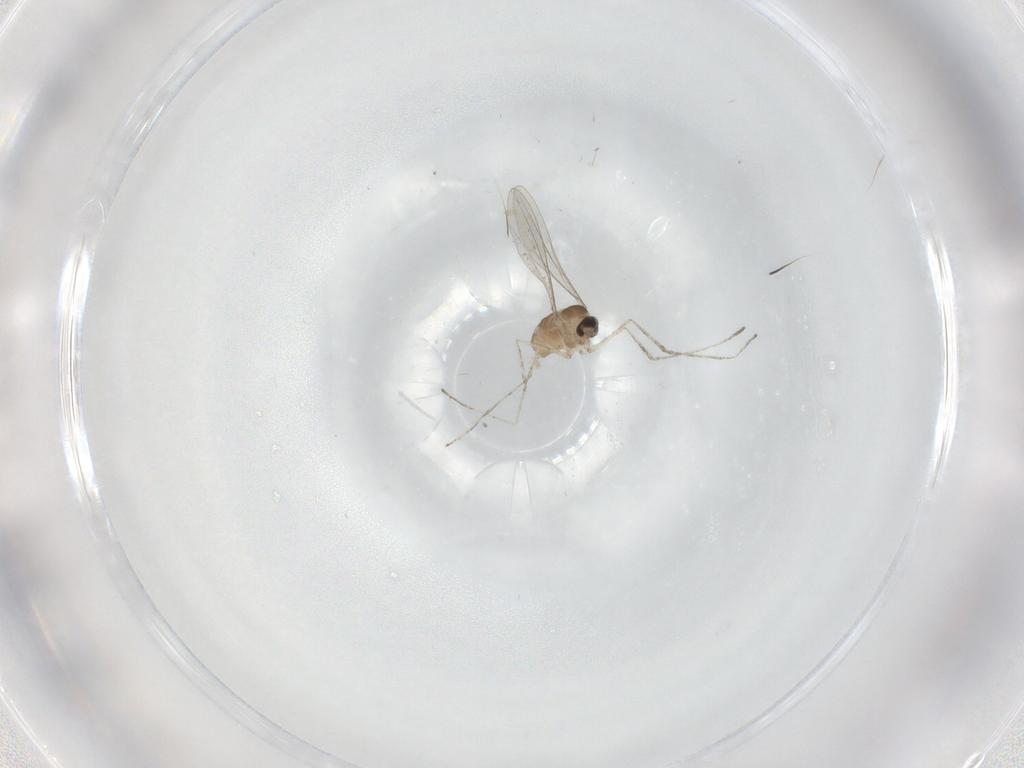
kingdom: Animalia
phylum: Arthropoda
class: Insecta
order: Diptera
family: Cecidomyiidae
